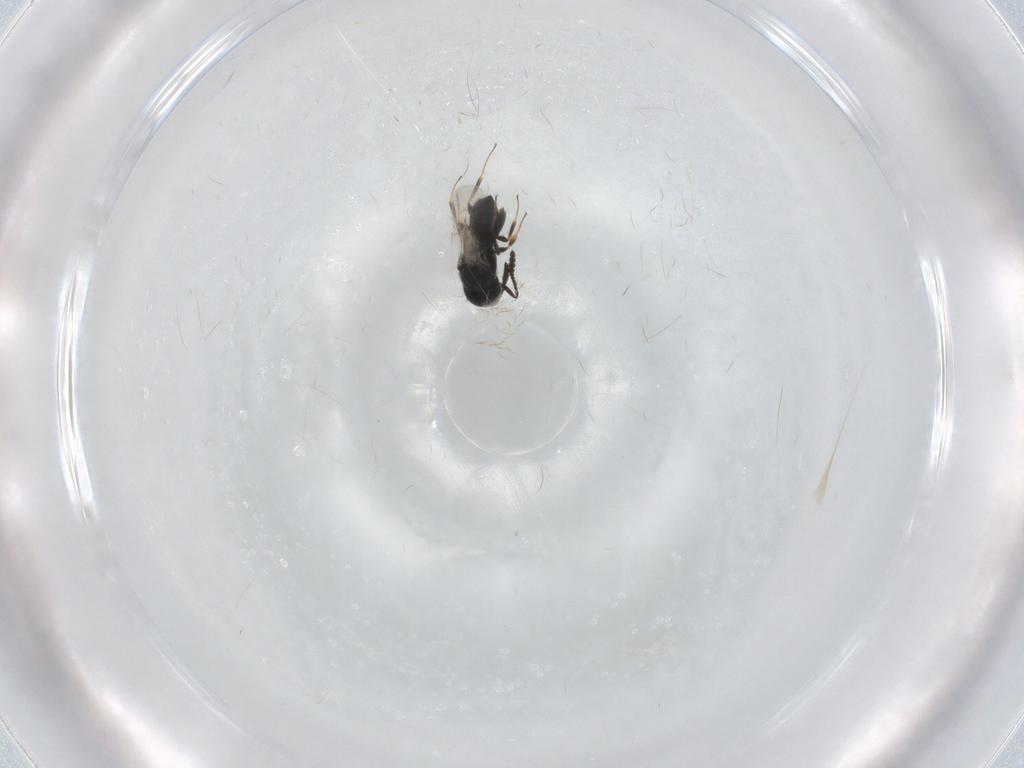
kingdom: Animalia
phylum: Arthropoda
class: Insecta
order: Hymenoptera
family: Scelionidae
